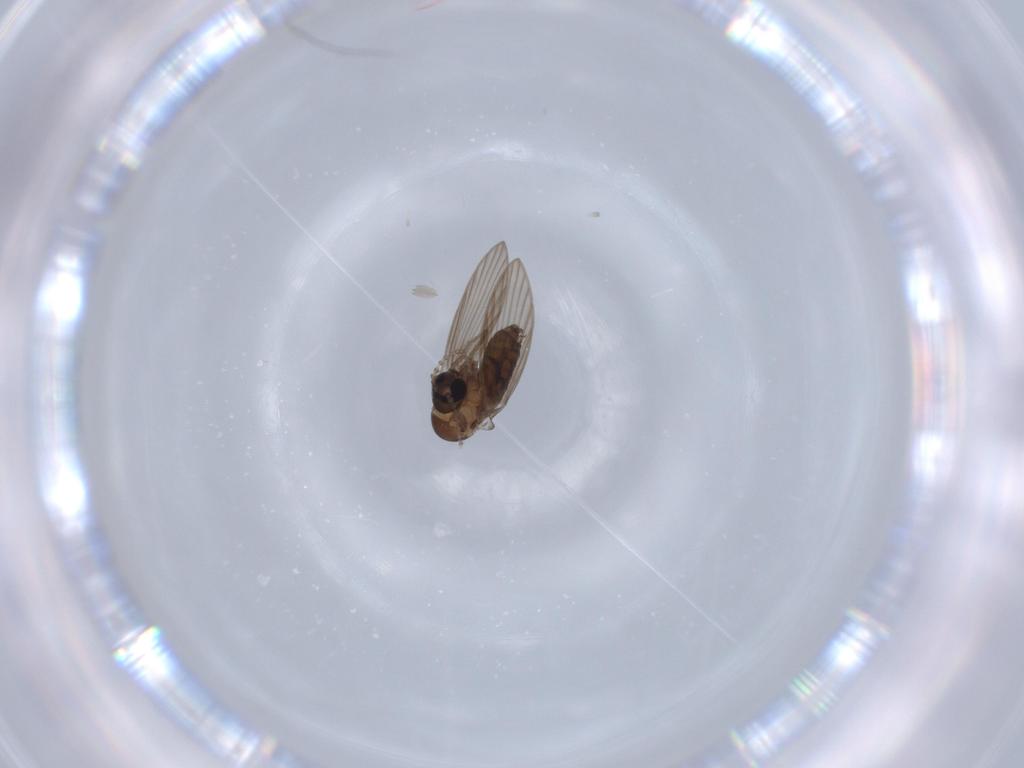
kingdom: Animalia
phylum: Arthropoda
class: Insecta
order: Diptera
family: Psychodidae
